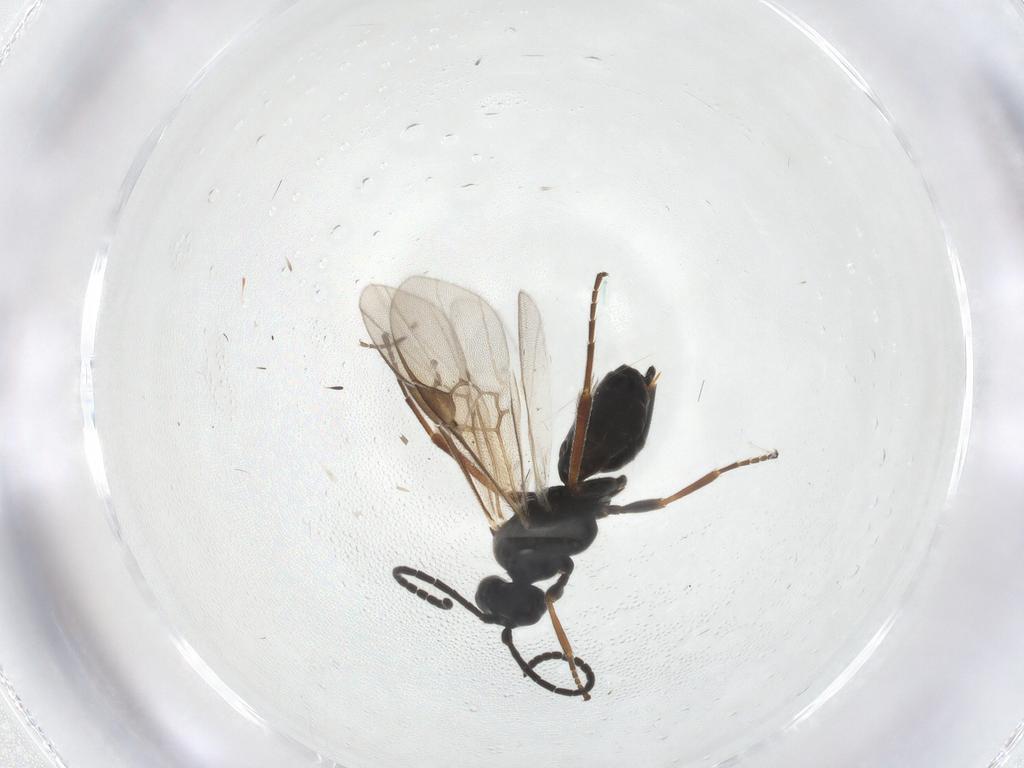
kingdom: Animalia
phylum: Arthropoda
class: Insecta
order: Hymenoptera
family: Braconidae
